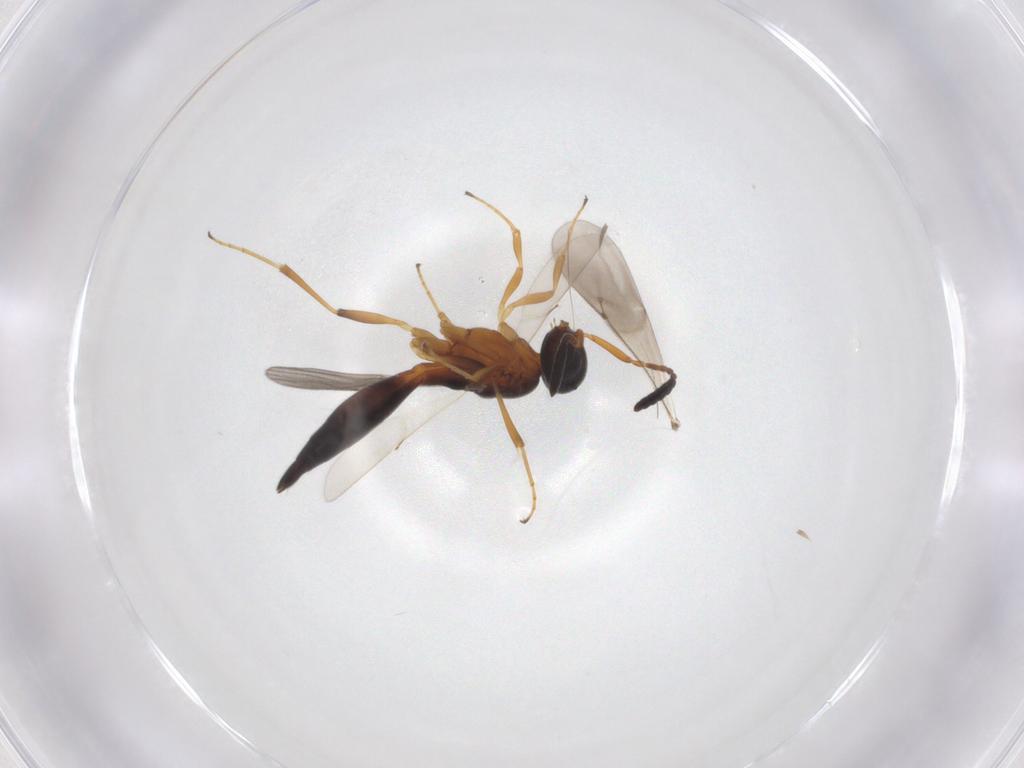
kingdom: Animalia
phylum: Arthropoda
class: Insecta
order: Hymenoptera
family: Scelionidae
